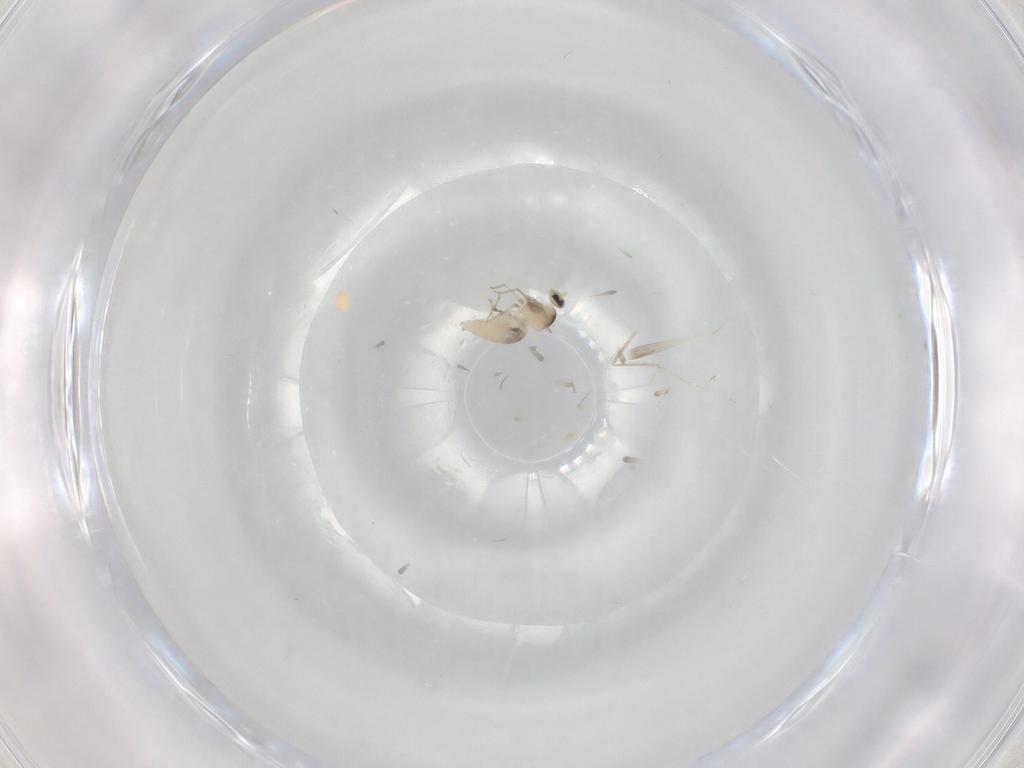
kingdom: Animalia
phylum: Arthropoda
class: Insecta
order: Diptera
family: Cecidomyiidae
